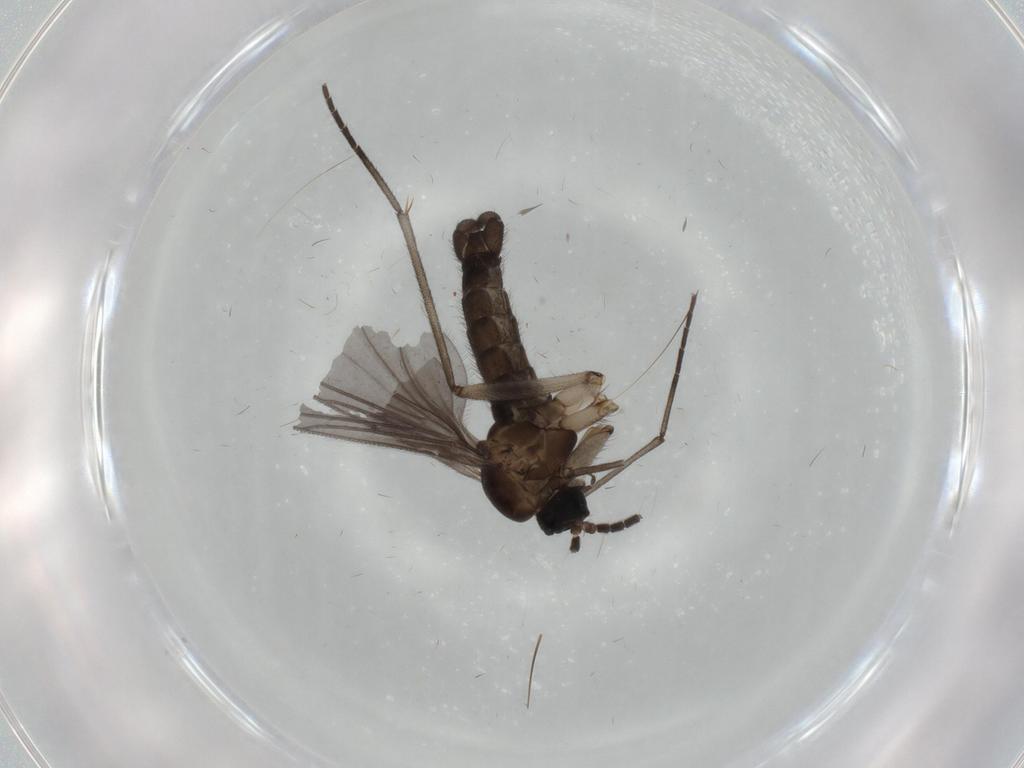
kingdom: Animalia
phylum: Arthropoda
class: Insecta
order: Diptera
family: Sciaridae
